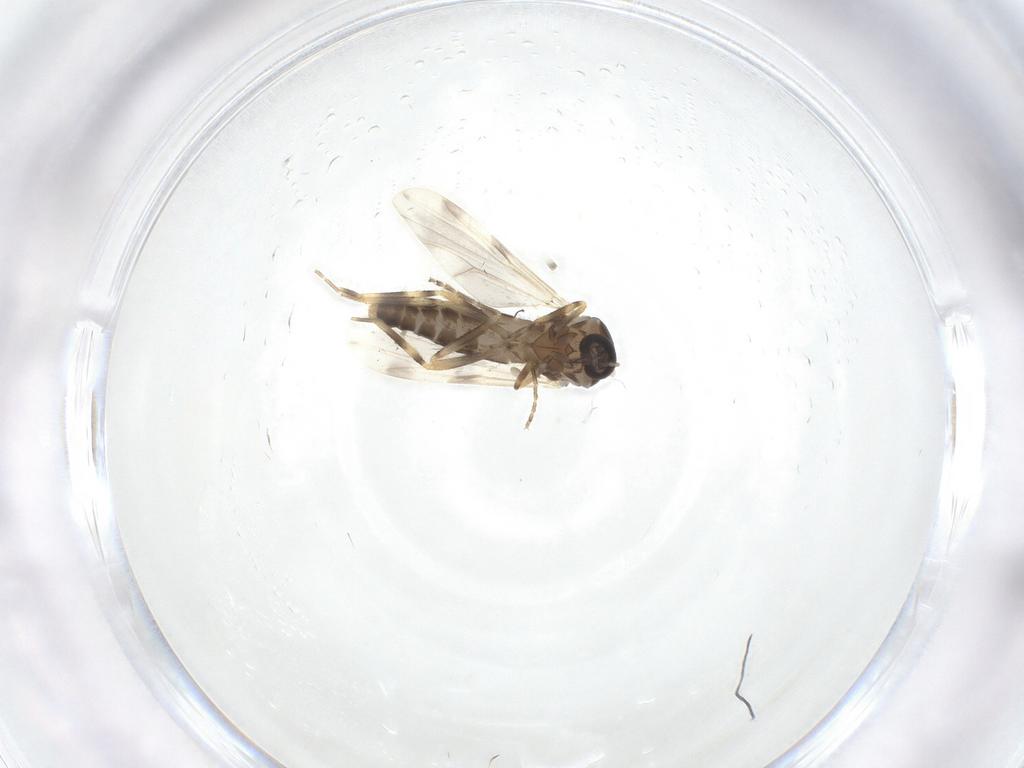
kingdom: Animalia
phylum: Arthropoda
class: Insecta
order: Diptera
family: Ceratopogonidae
